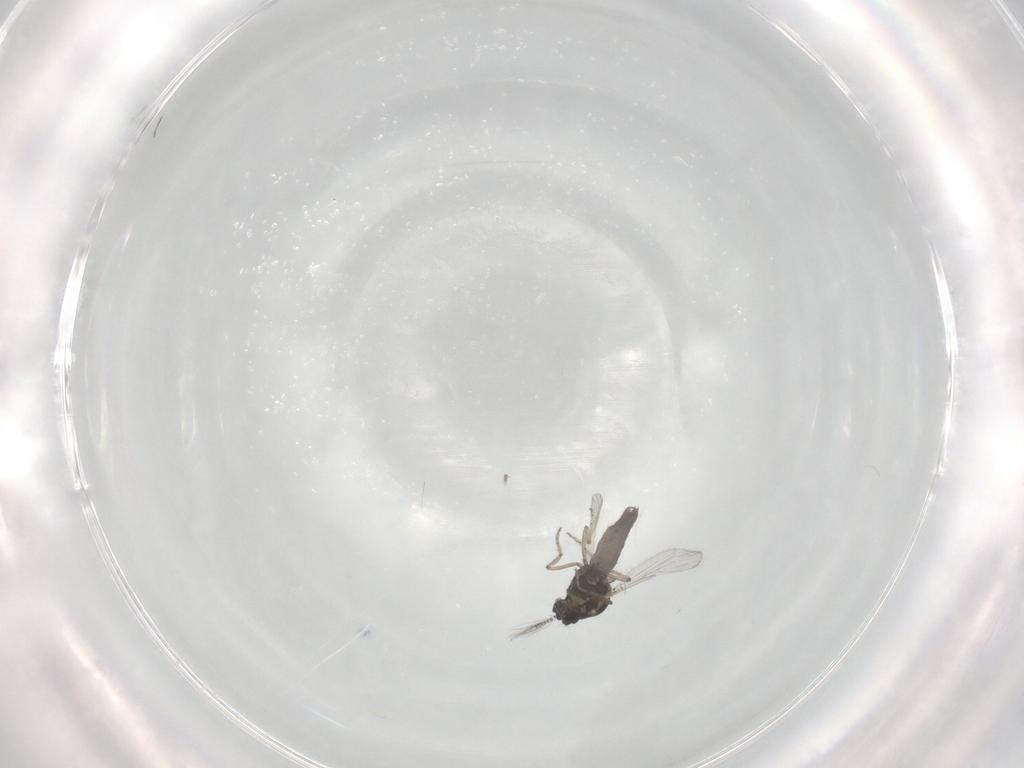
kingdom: Animalia
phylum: Arthropoda
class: Insecta
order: Diptera
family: Ceratopogonidae
